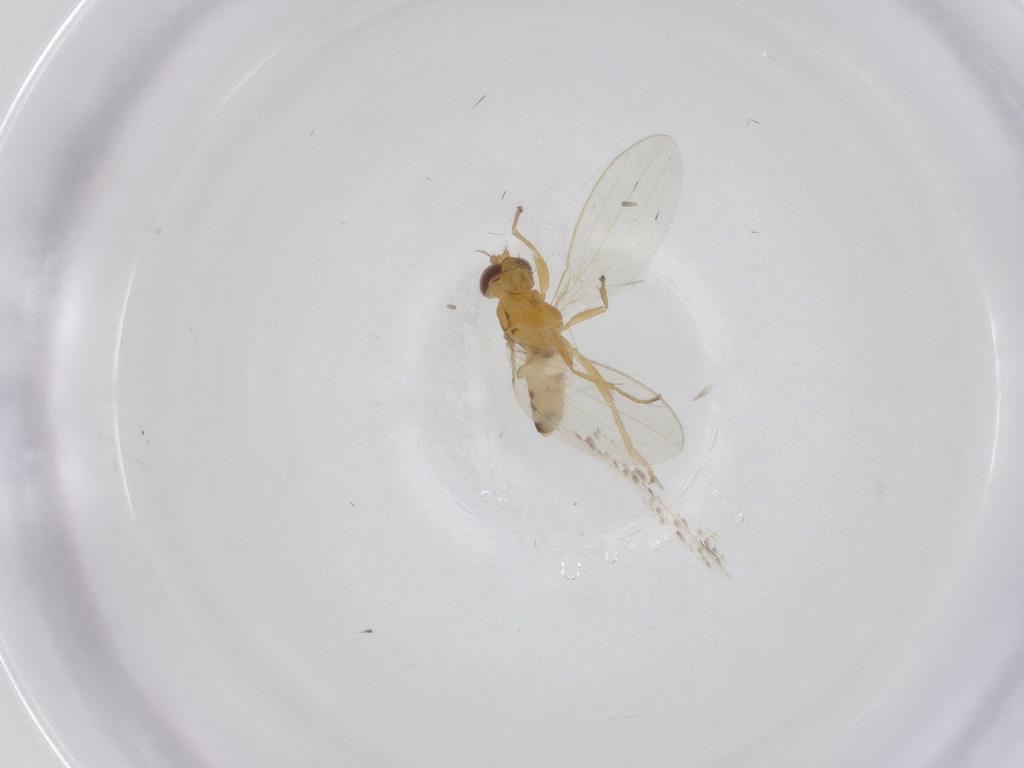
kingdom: Animalia
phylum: Arthropoda
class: Insecta
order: Diptera
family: Periscelididae
